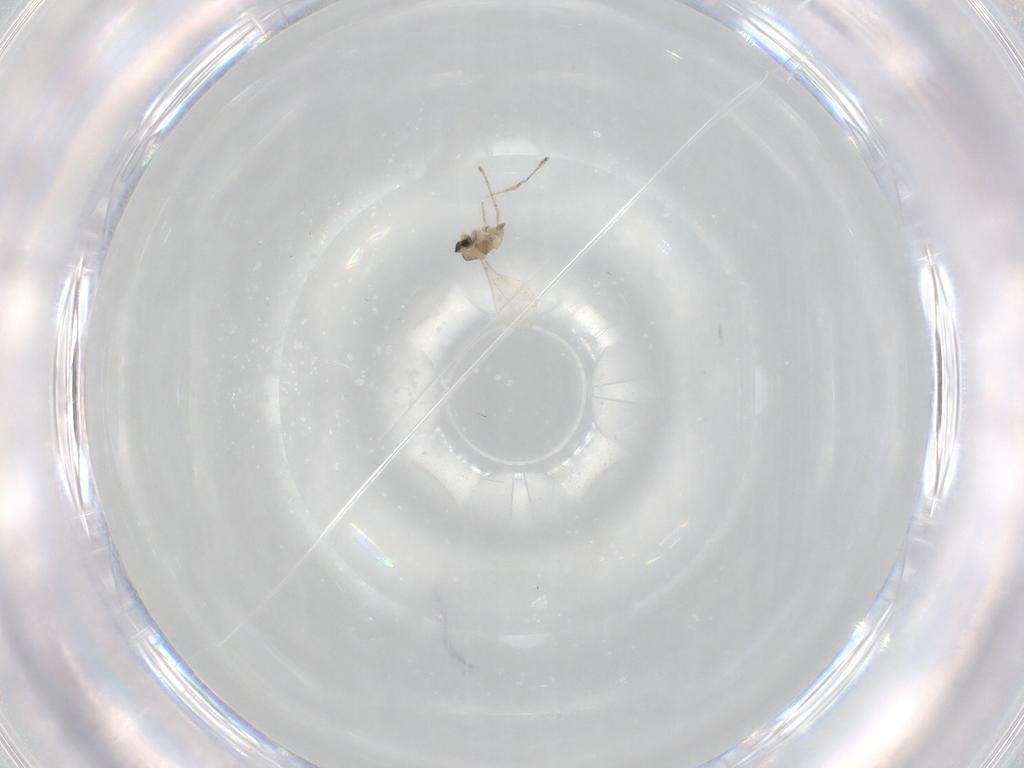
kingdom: Animalia
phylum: Arthropoda
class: Insecta
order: Diptera
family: Cecidomyiidae
